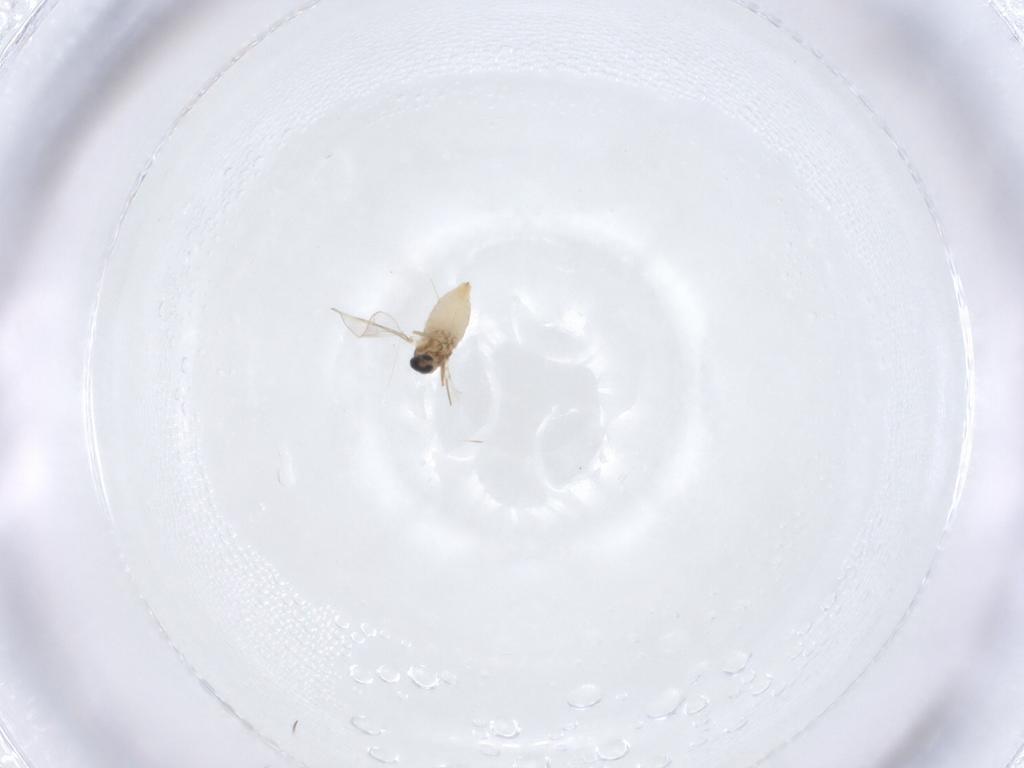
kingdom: Animalia
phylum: Arthropoda
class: Insecta
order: Diptera
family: Cecidomyiidae
